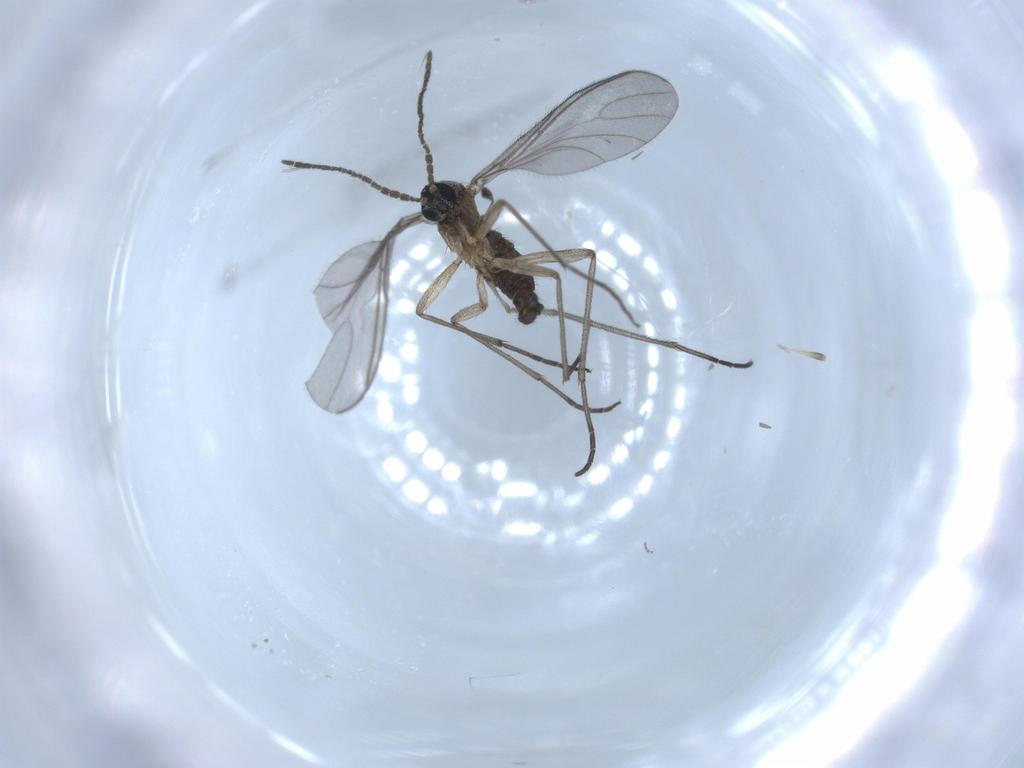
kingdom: Animalia
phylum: Arthropoda
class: Insecta
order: Diptera
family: Sciaridae
